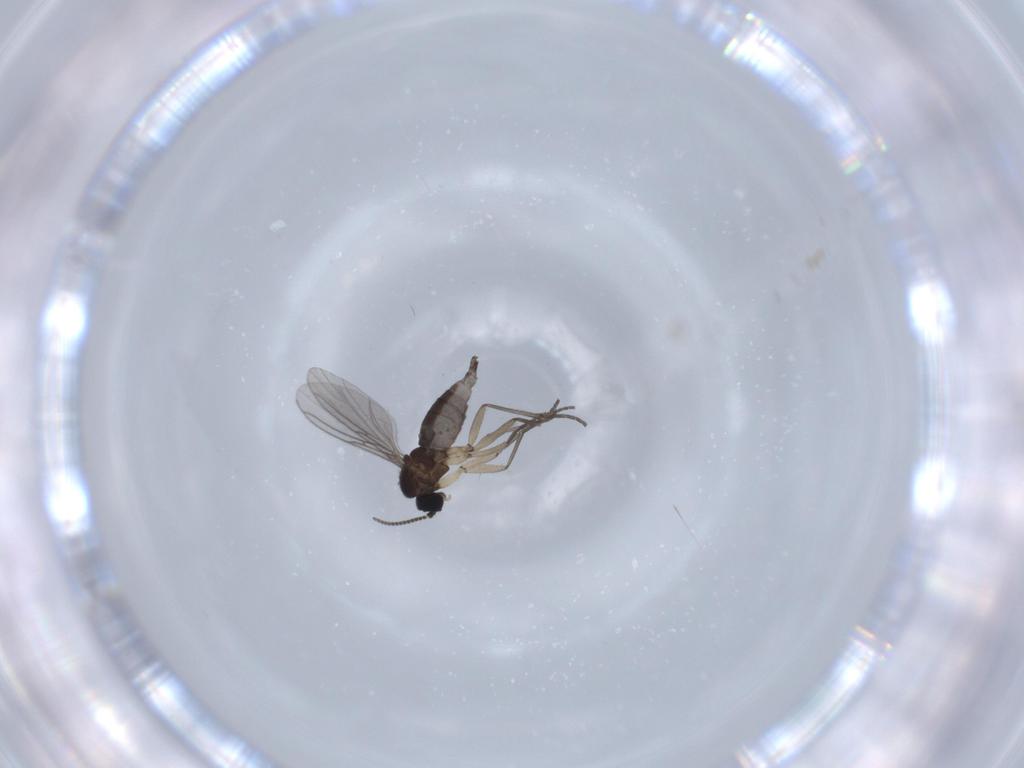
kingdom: Animalia
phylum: Arthropoda
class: Insecta
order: Diptera
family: Sciaridae
